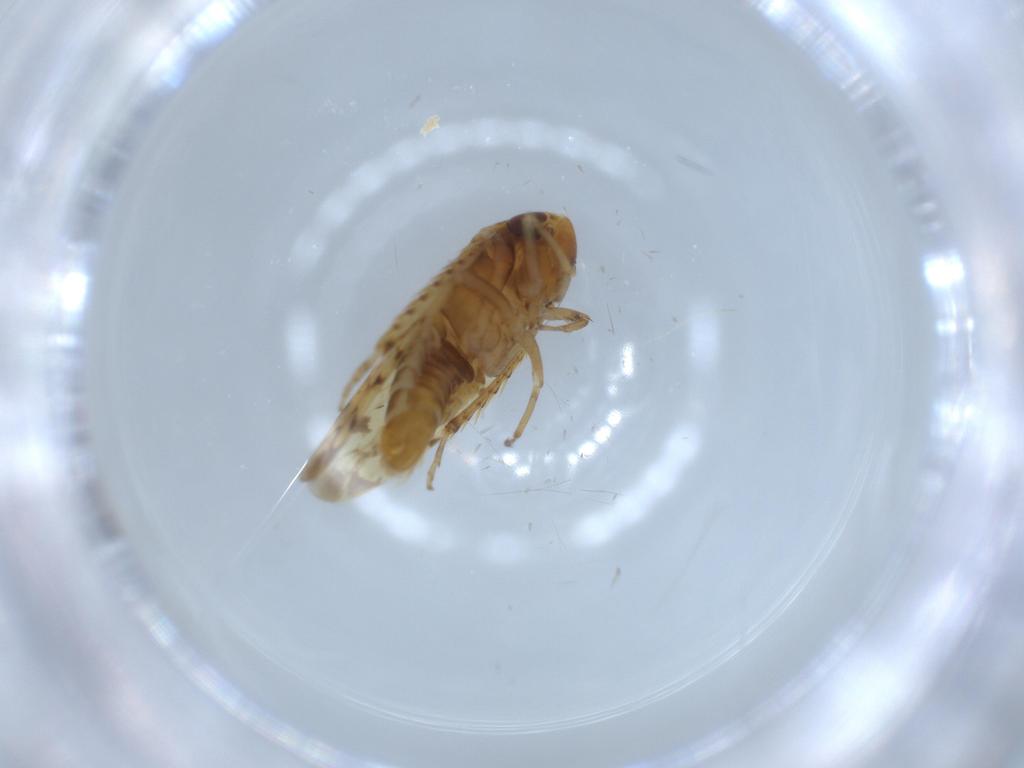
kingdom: Animalia
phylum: Arthropoda
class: Insecta
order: Hemiptera
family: Cicadellidae
